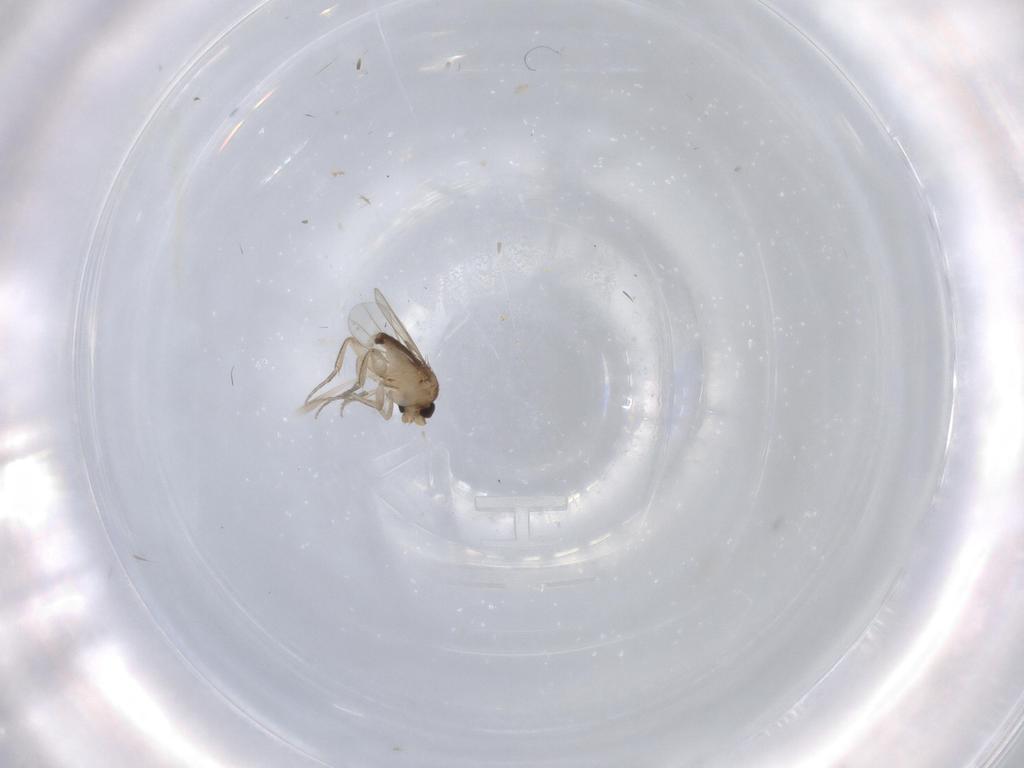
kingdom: Animalia
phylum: Arthropoda
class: Insecta
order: Diptera
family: Phoridae
